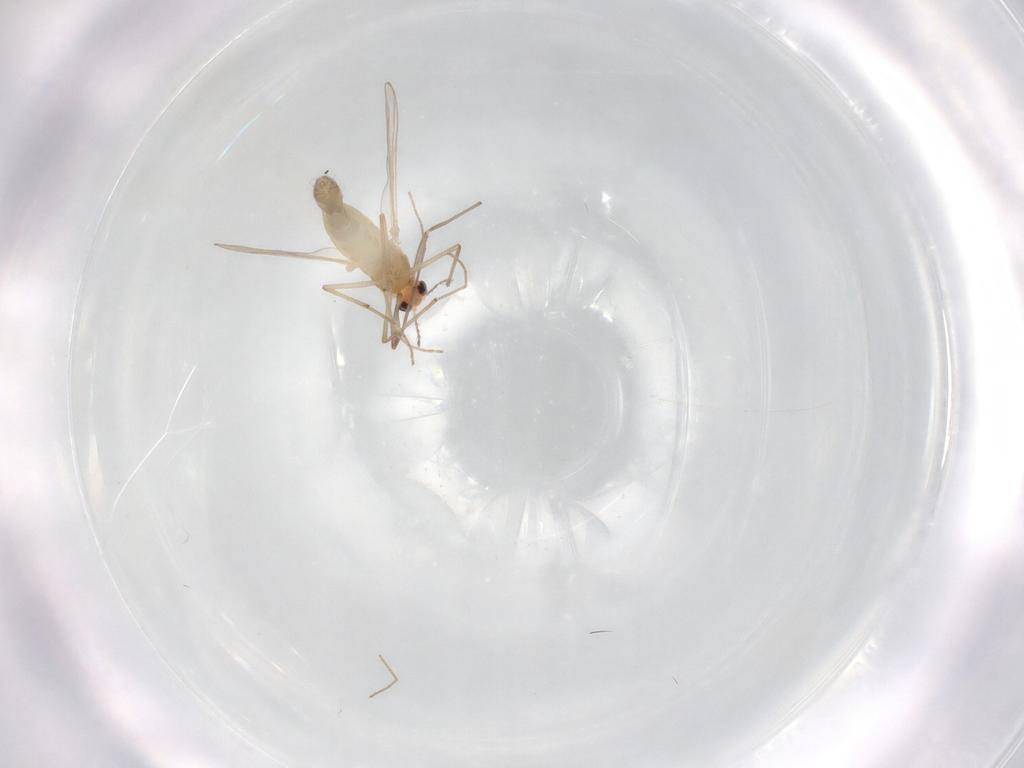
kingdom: Animalia
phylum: Arthropoda
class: Insecta
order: Diptera
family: Chironomidae
